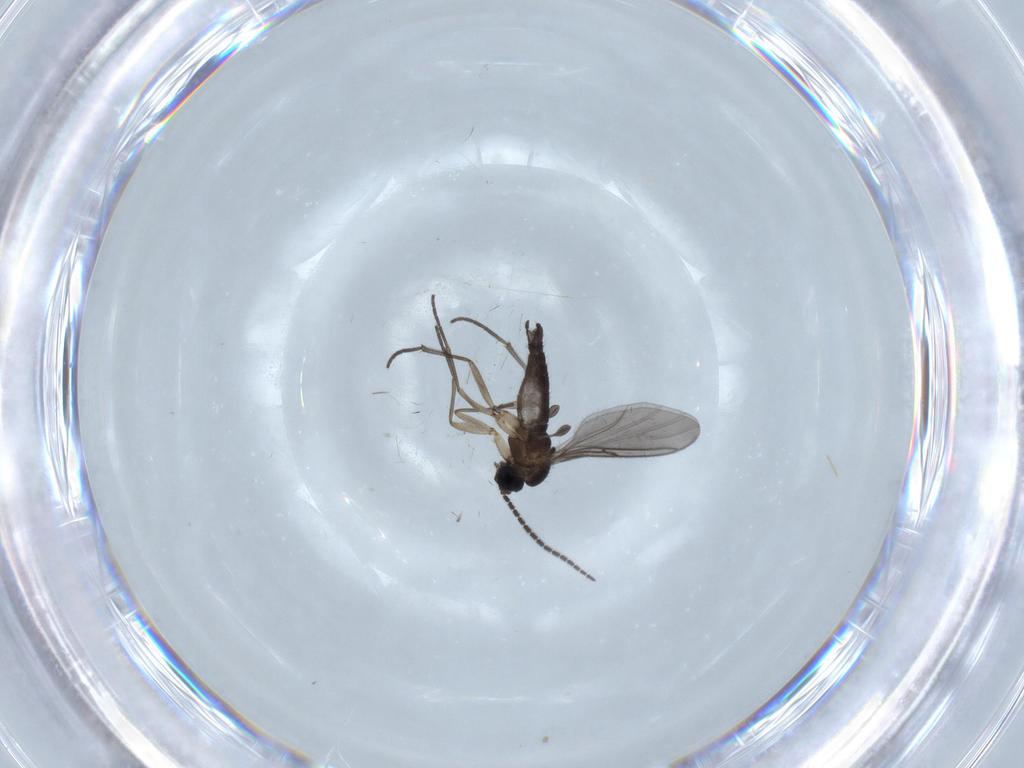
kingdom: Animalia
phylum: Arthropoda
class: Insecta
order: Diptera
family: Sciaridae
